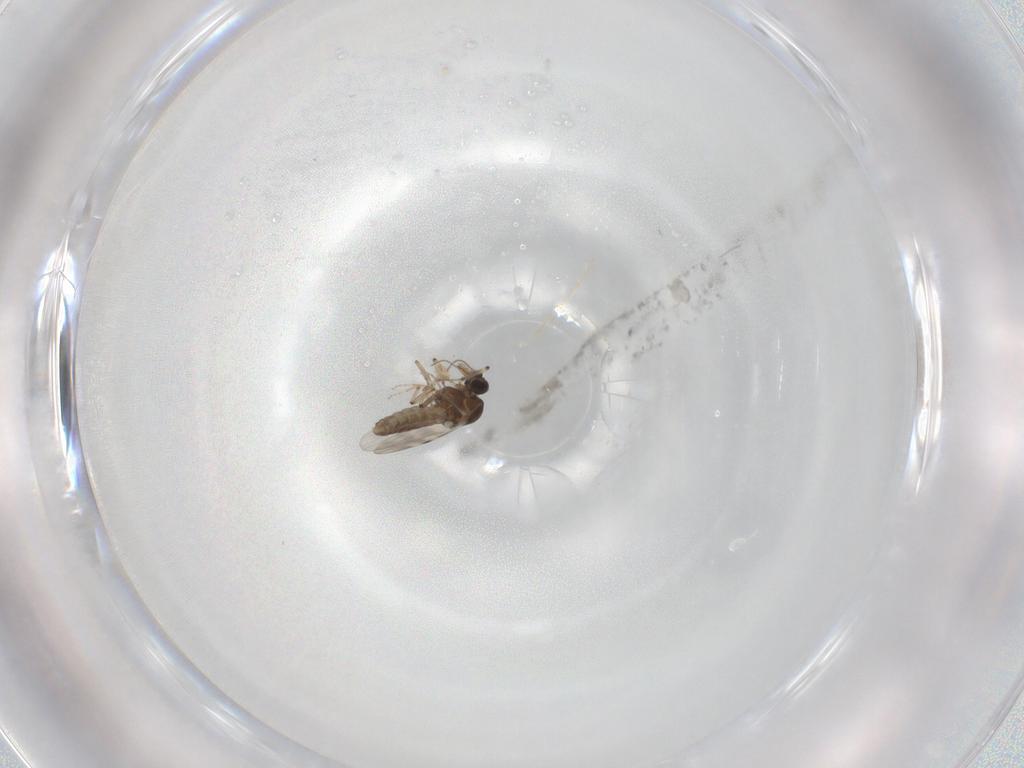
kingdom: Animalia
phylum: Arthropoda
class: Insecta
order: Diptera
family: Stratiomyidae
